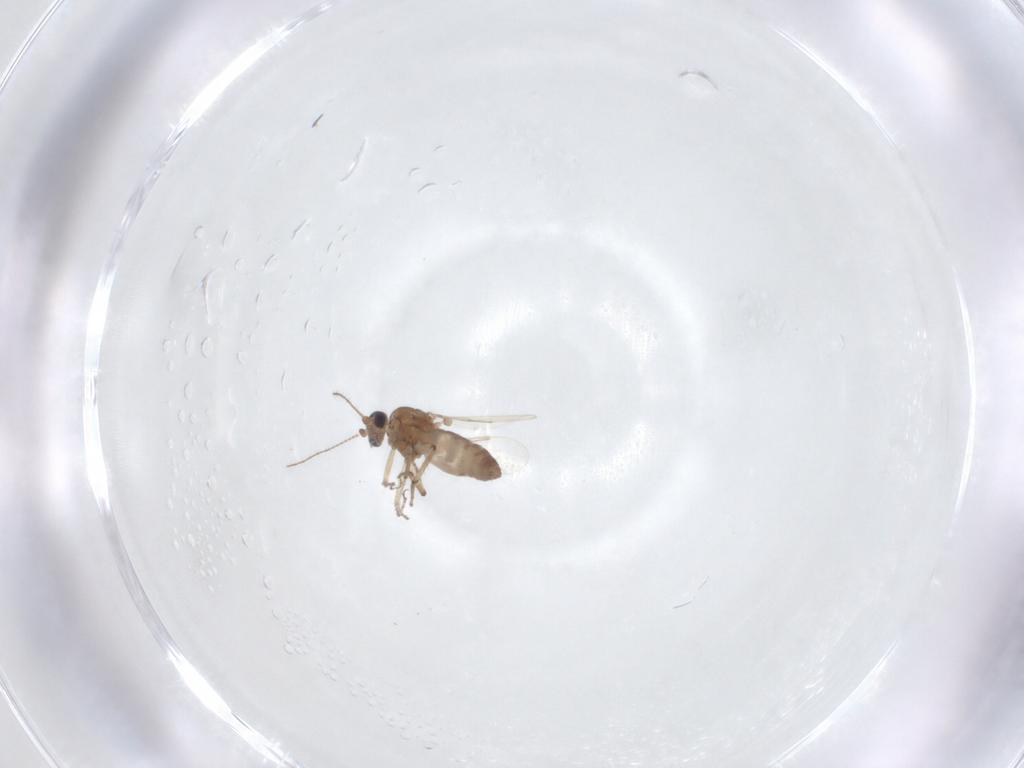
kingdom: Animalia
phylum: Arthropoda
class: Insecta
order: Diptera
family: Ceratopogonidae
